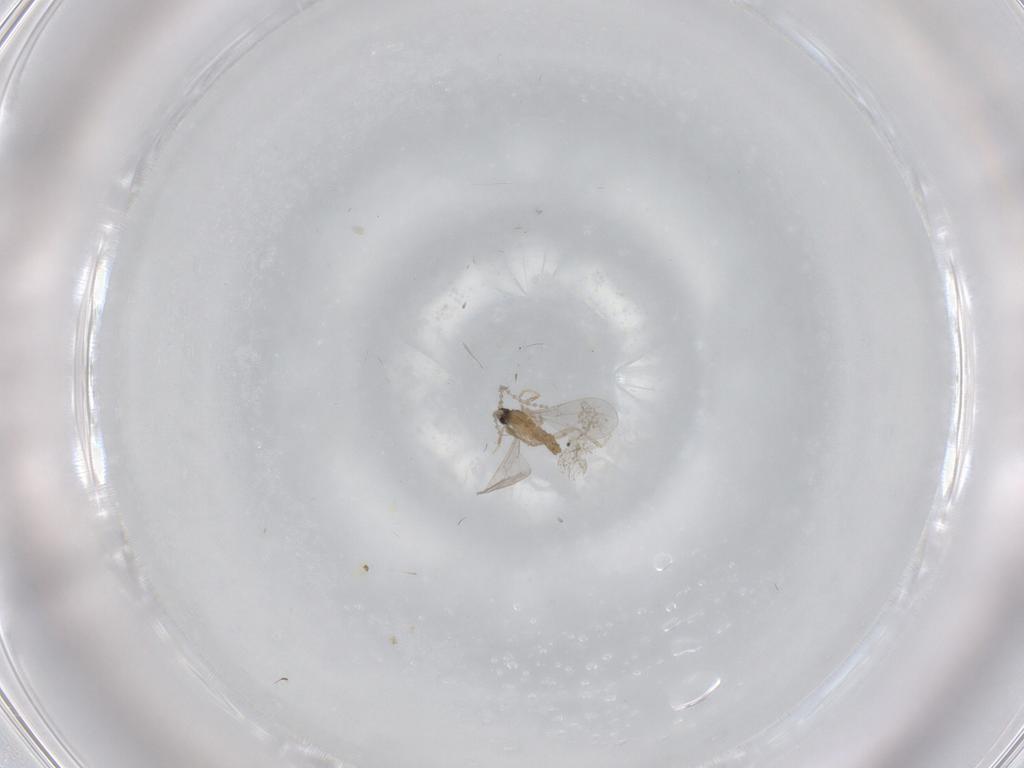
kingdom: Animalia
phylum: Arthropoda
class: Insecta
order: Diptera
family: Cecidomyiidae
